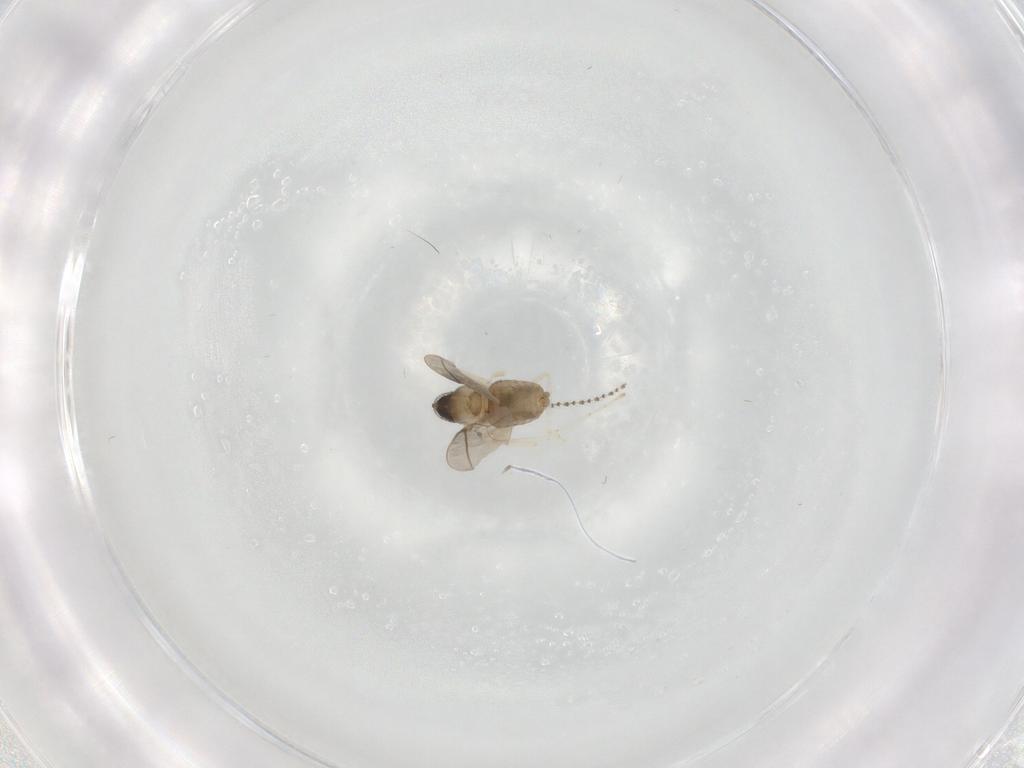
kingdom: Animalia
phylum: Arthropoda
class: Insecta
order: Diptera
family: Cecidomyiidae
